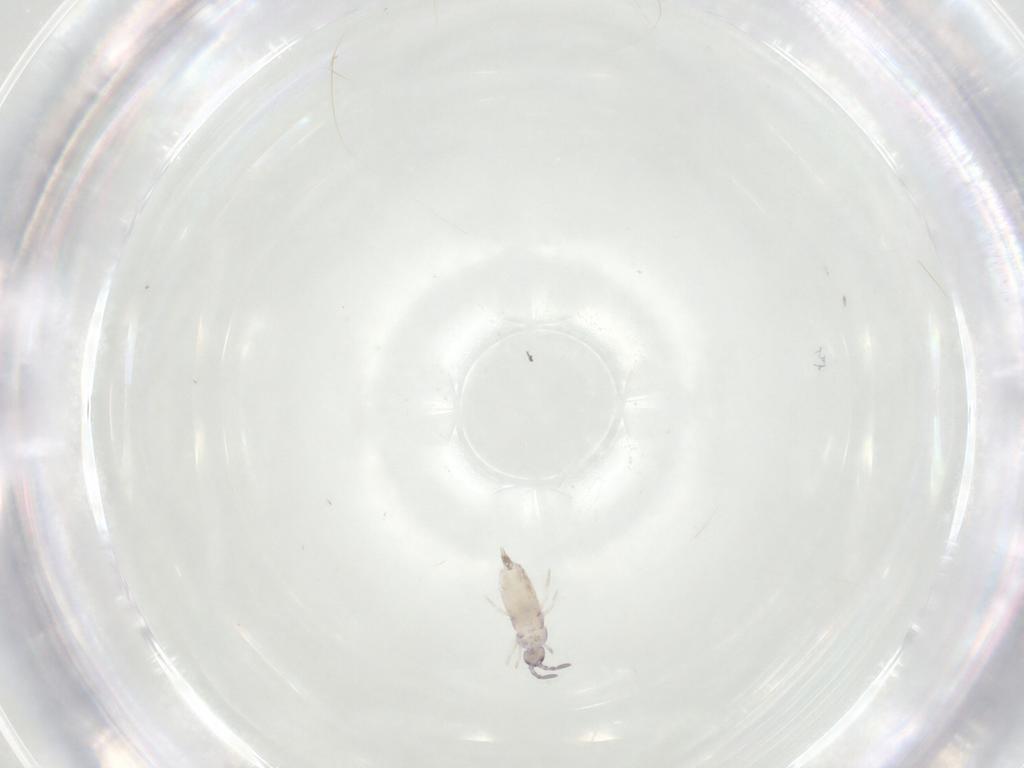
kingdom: Animalia
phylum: Arthropoda
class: Collembola
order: Entomobryomorpha
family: Entomobryidae
